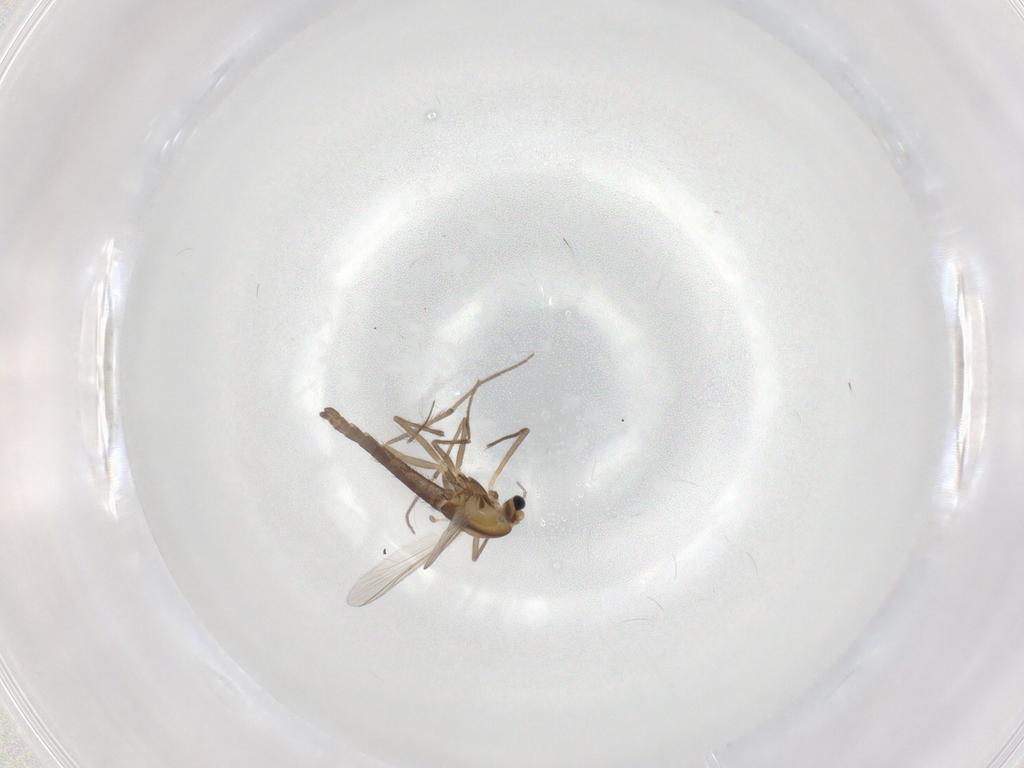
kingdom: Animalia
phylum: Arthropoda
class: Insecta
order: Diptera
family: Chironomidae
